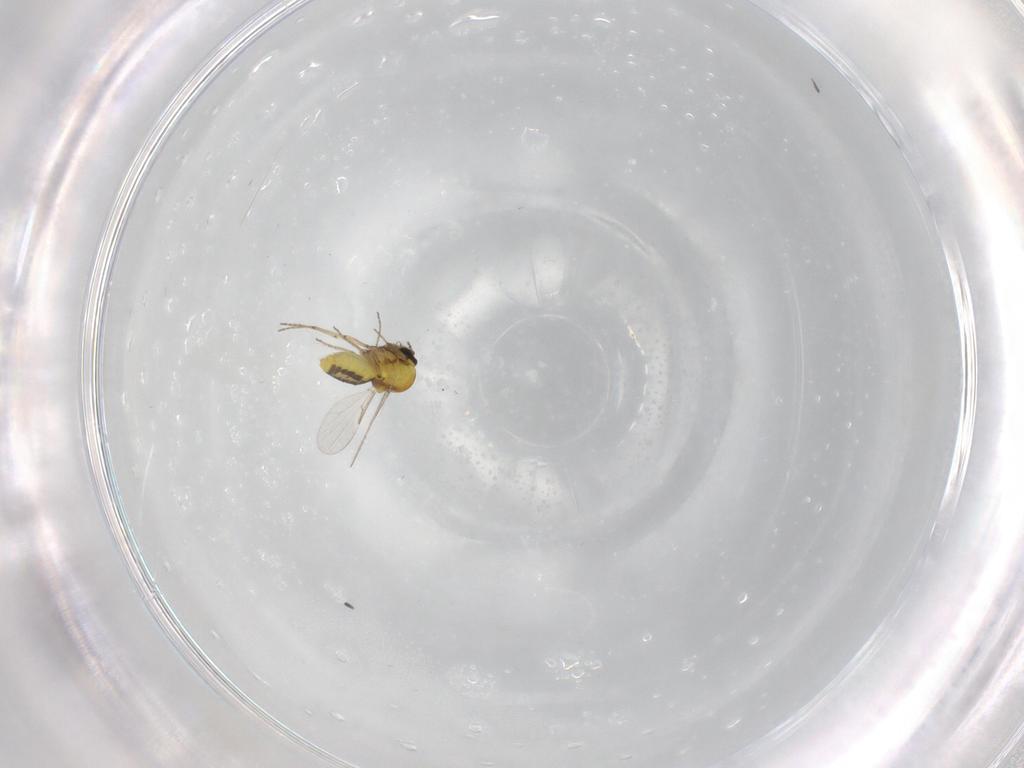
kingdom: Animalia
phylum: Arthropoda
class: Insecta
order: Diptera
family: Ceratopogonidae
